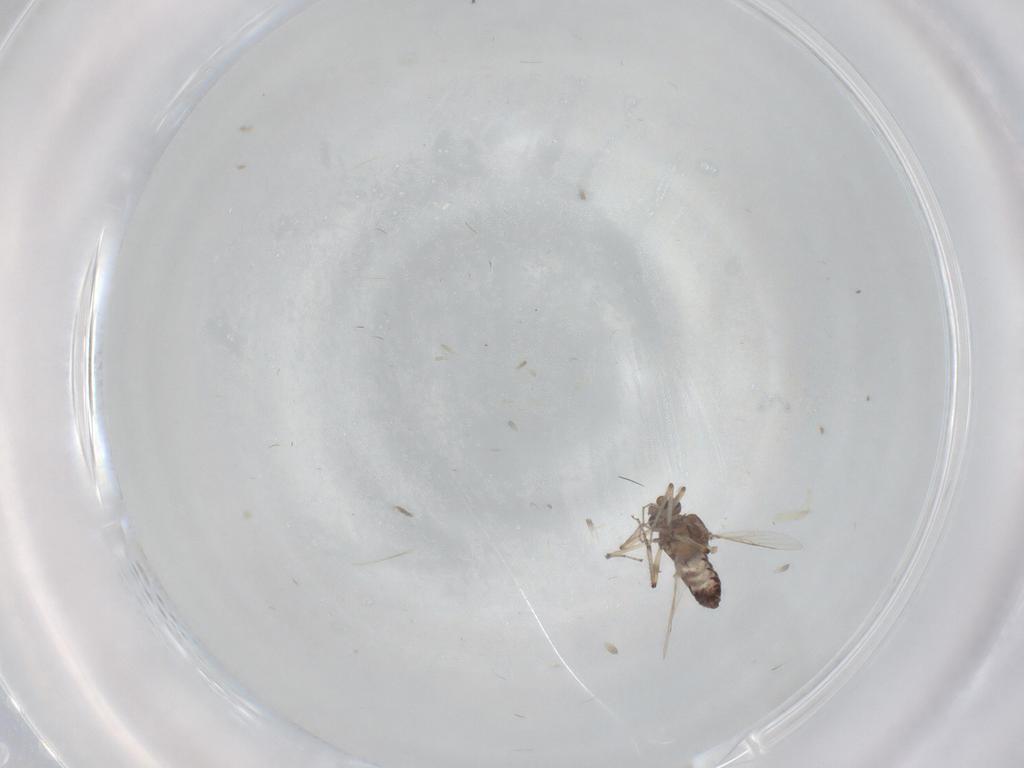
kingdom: Animalia
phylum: Arthropoda
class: Insecta
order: Diptera
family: Ceratopogonidae
